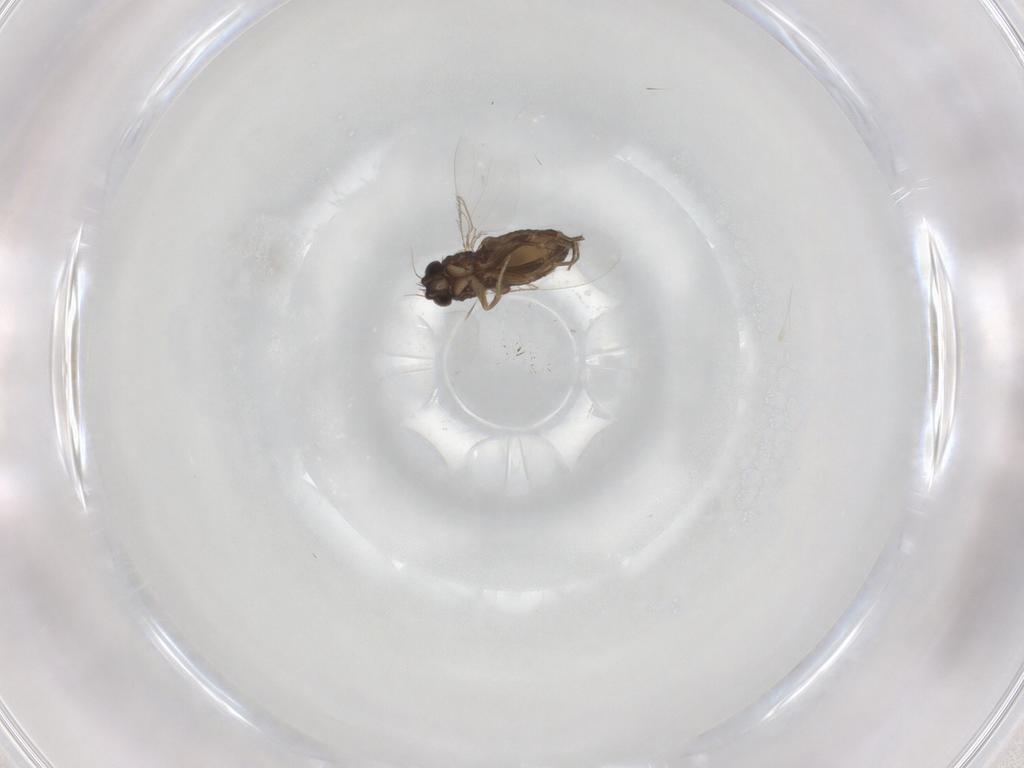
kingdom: Animalia
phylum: Arthropoda
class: Insecta
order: Diptera
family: Phoridae
